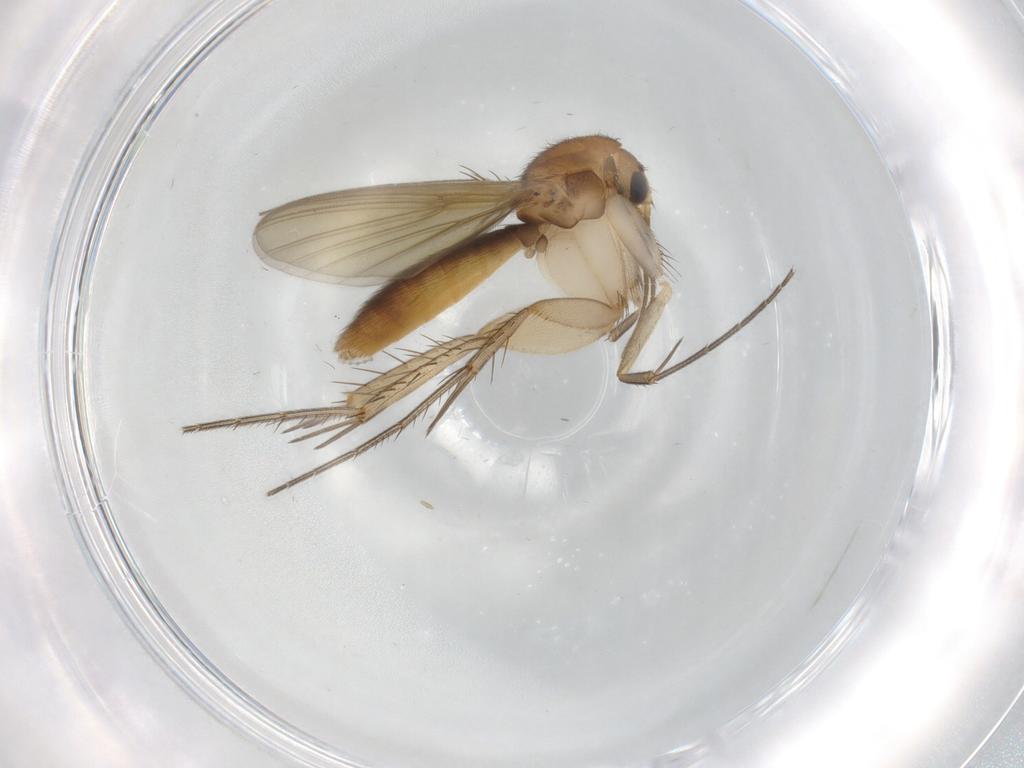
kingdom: Animalia
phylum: Arthropoda
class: Insecta
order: Diptera
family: Mycetophilidae
